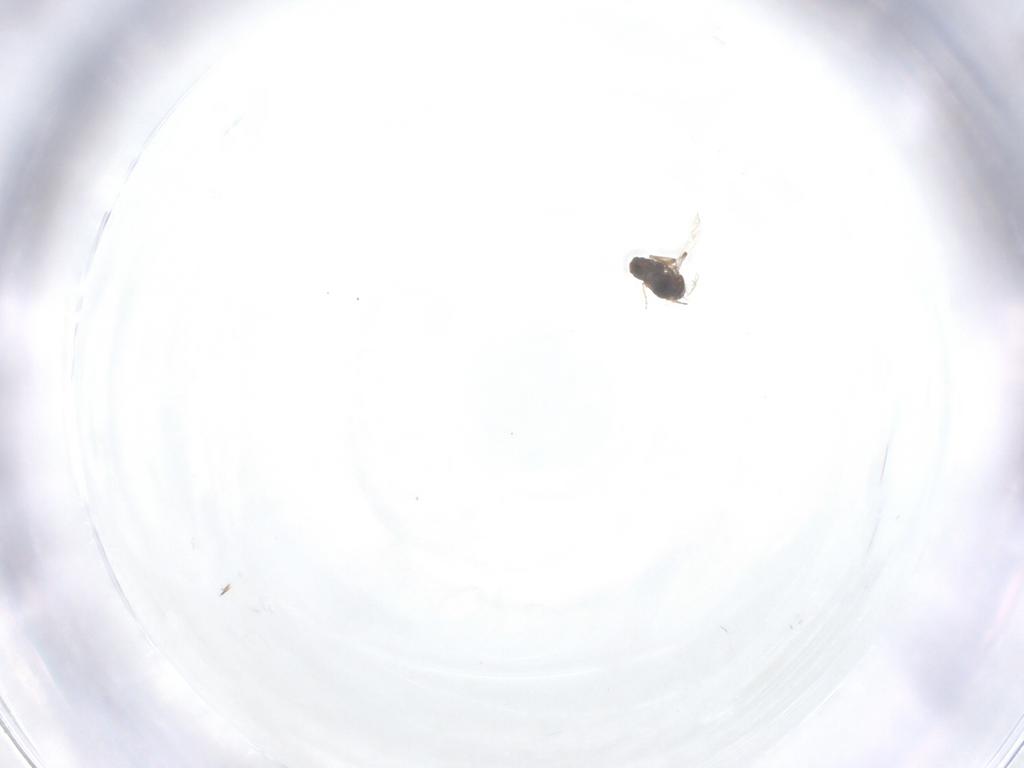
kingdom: Animalia
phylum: Arthropoda
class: Insecta
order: Diptera
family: Ceratopogonidae
